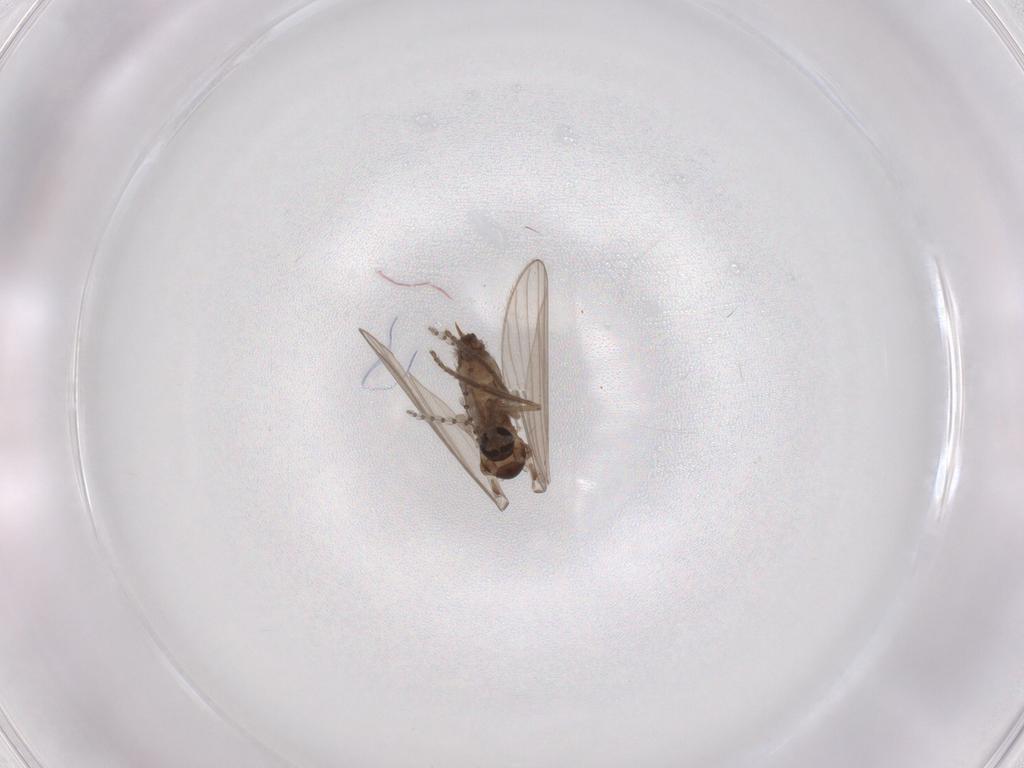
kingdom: Animalia
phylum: Arthropoda
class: Insecta
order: Diptera
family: Psychodidae
